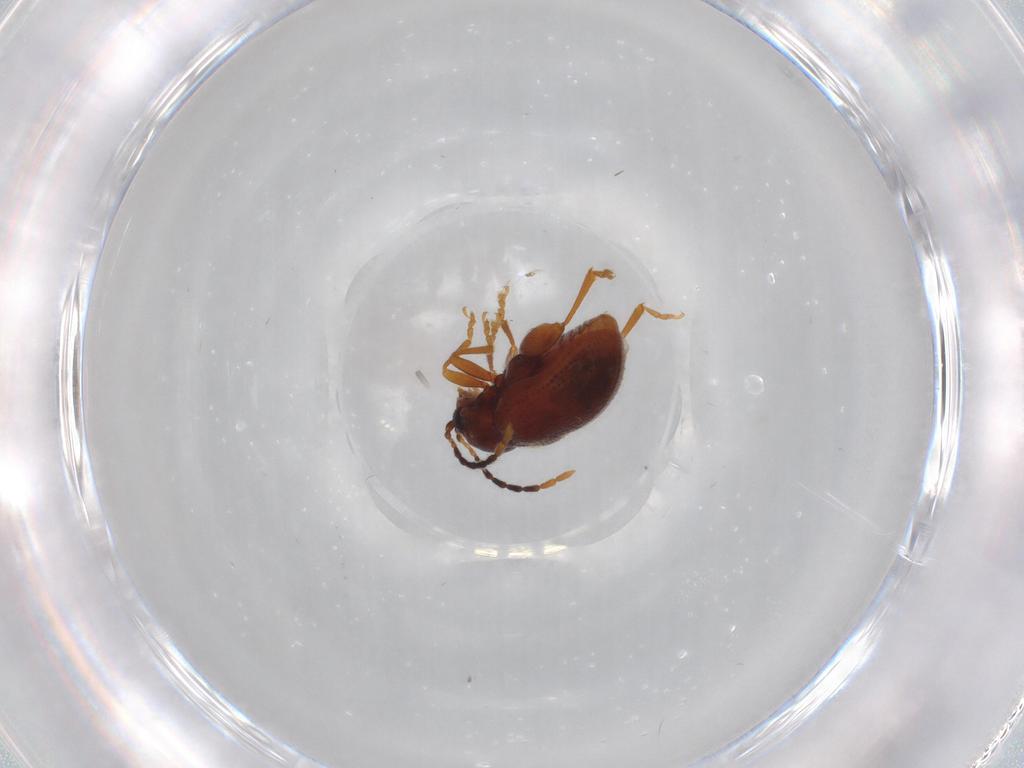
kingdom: Animalia
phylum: Arthropoda
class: Insecta
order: Coleoptera
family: Chrysomelidae
